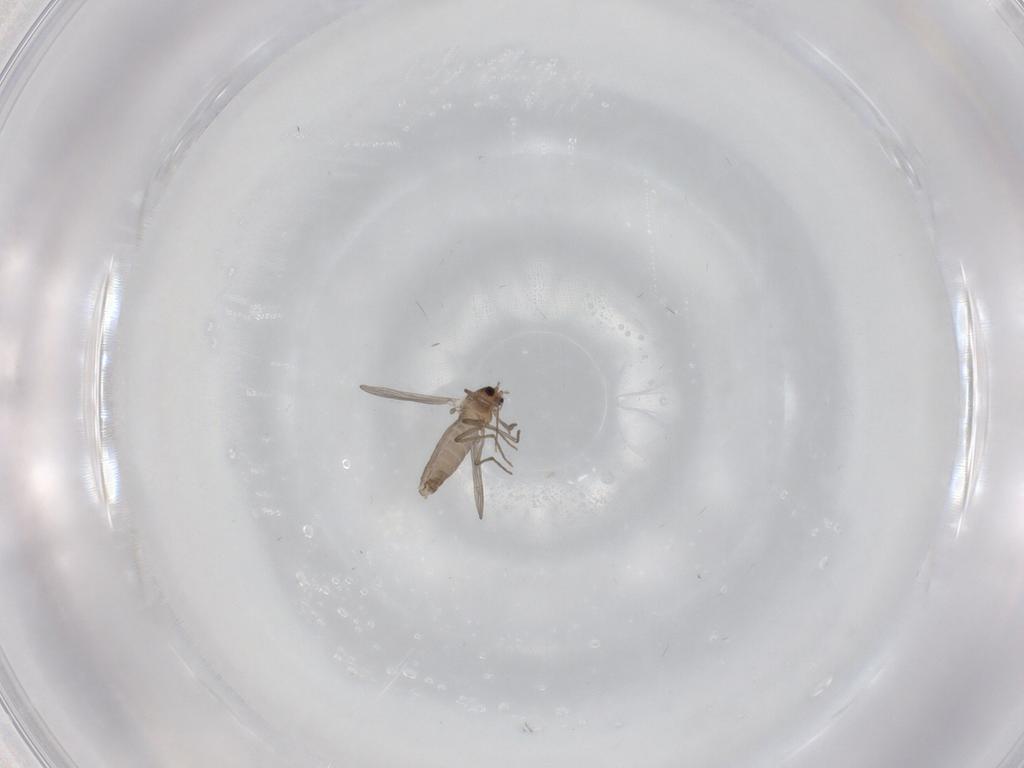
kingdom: Animalia
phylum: Arthropoda
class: Insecta
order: Diptera
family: Chironomidae
